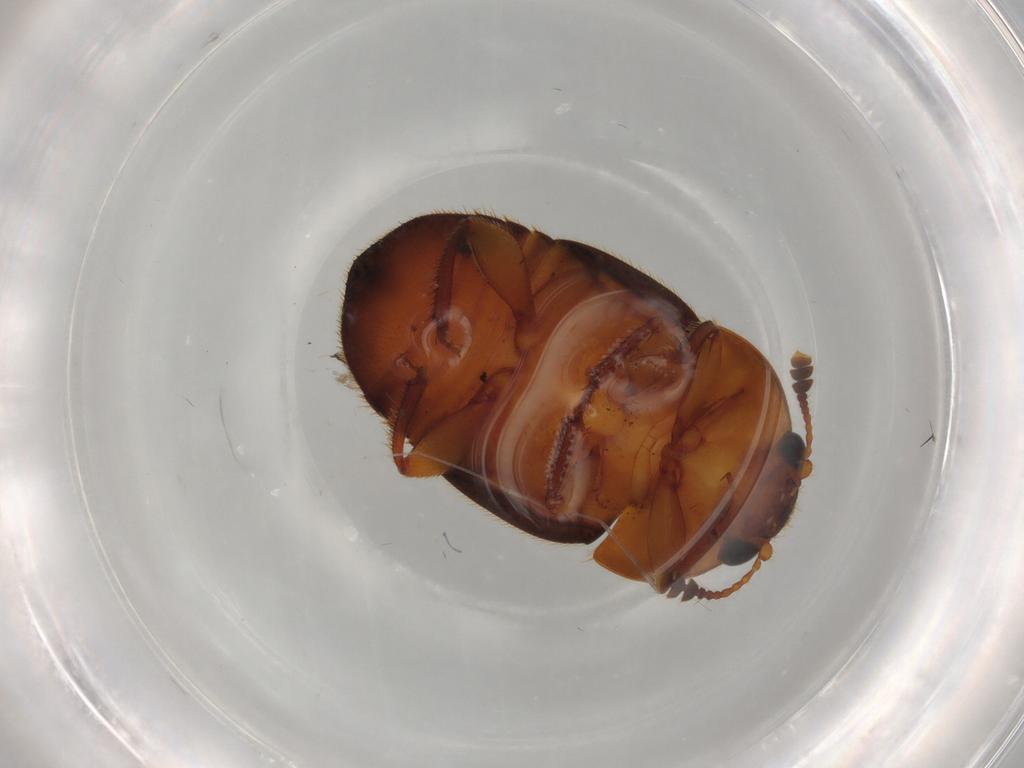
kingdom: Animalia
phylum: Arthropoda
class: Insecta
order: Coleoptera
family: Nitidulidae
